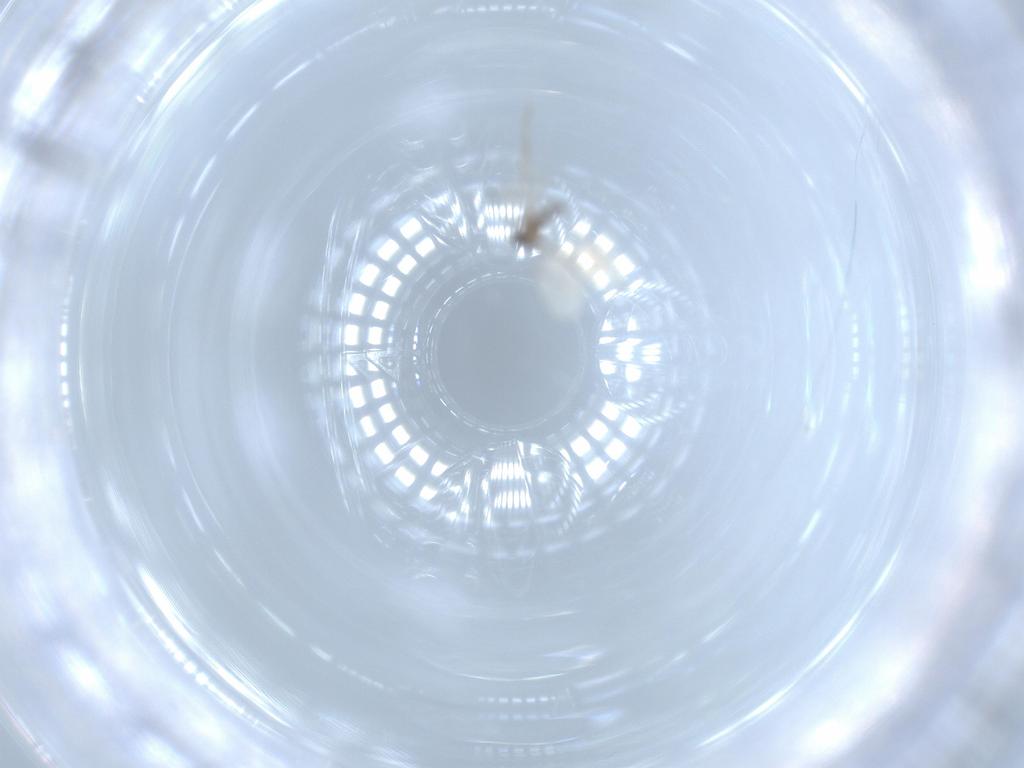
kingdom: Animalia
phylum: Arthropoda
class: Insecta
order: Diptera
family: Cecidomyiidae
